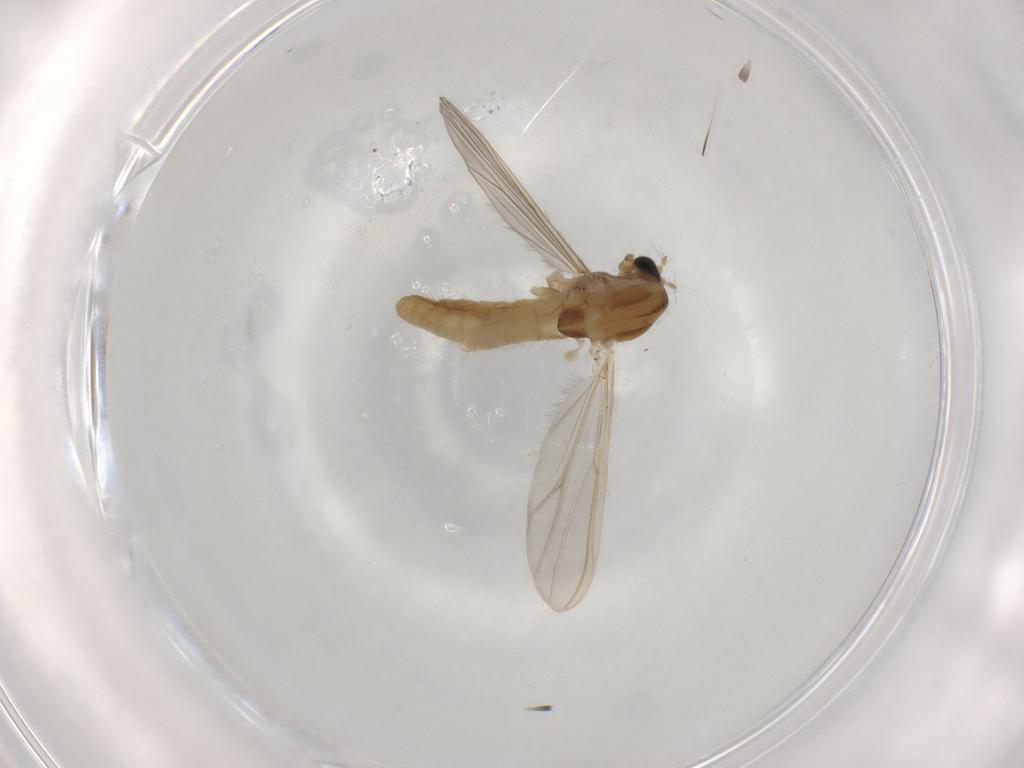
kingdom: Animalia
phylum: Arthropoda
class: Insecta
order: Diptera
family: Chironomidae
